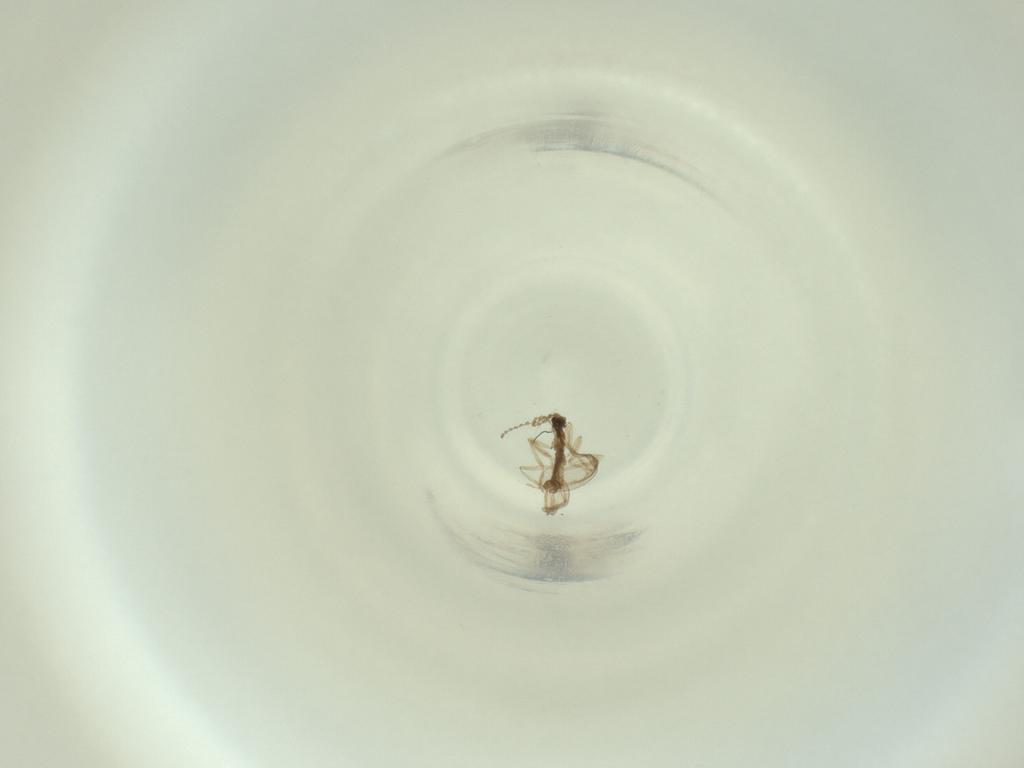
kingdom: Animalia
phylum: Arthropoda
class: Insecta
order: Diptera
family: Cecidomyiidae
